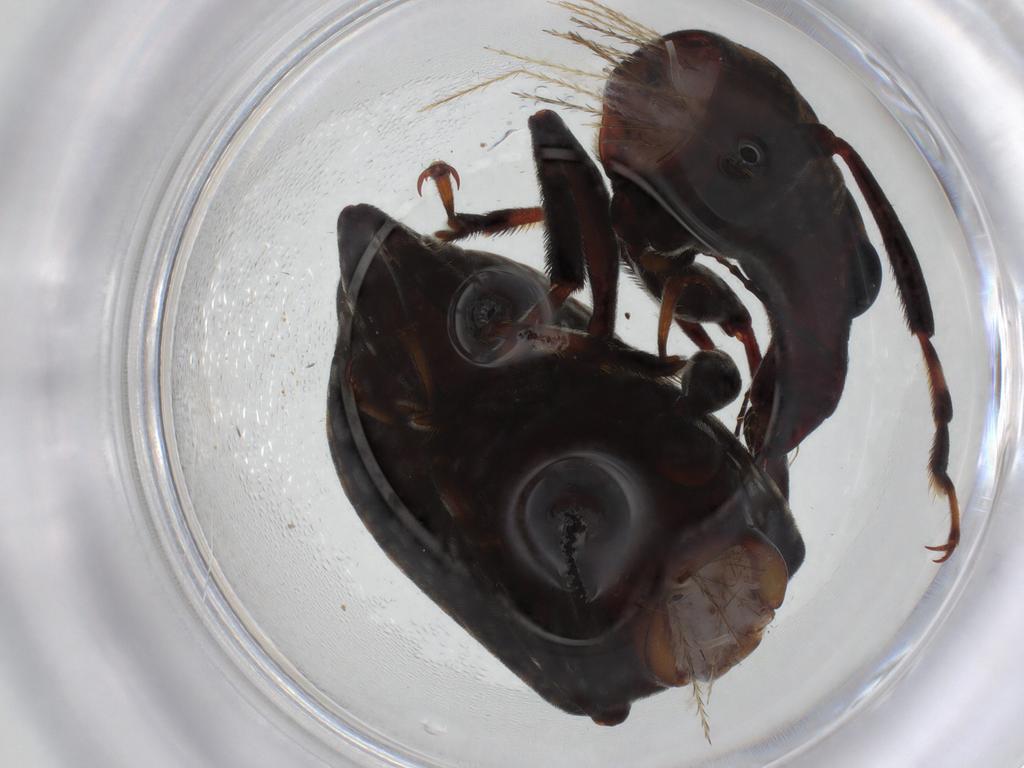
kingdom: Animalia
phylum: Arthropoda
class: Insecta
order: Coleoptera
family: Anthribidae
